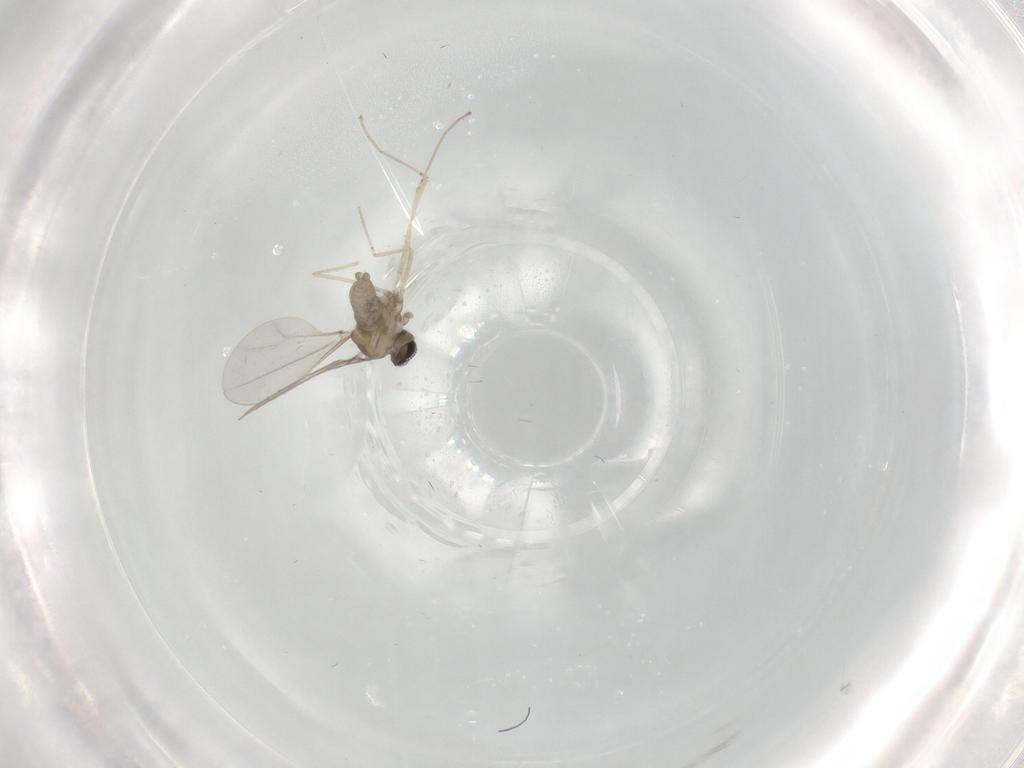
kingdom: Animalia
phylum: Arthropoda
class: Insecta
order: Diptera
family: Cecidomyiidae
